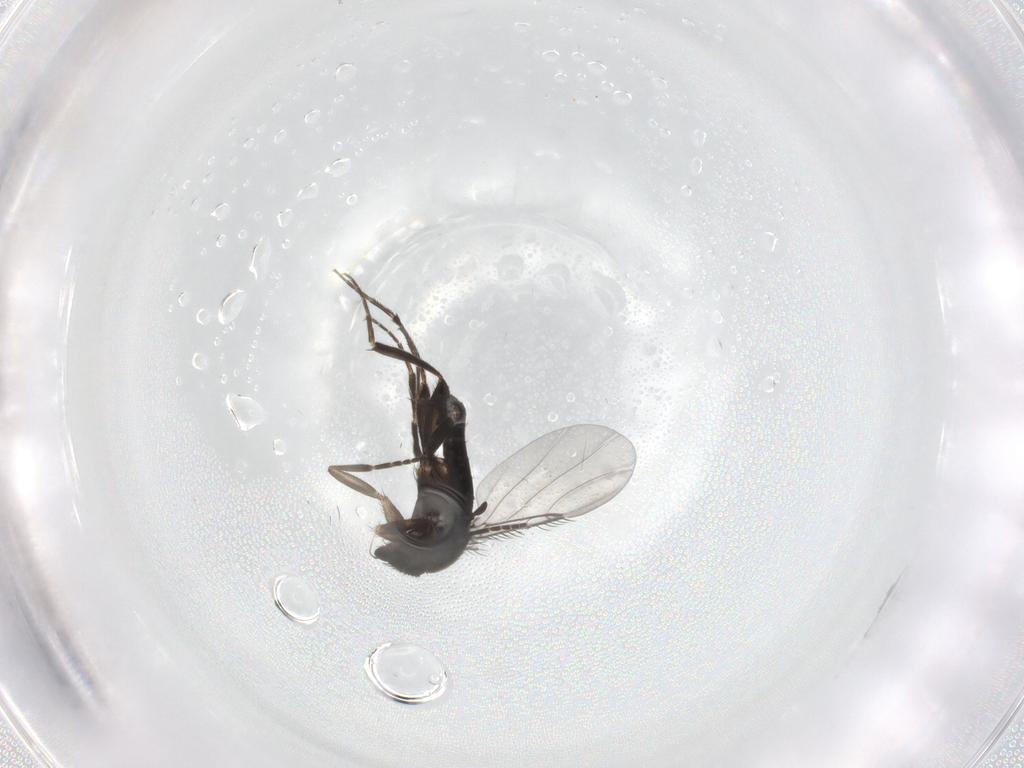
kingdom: Animalia
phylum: Arthropoda
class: Insecta
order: Diptera
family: Phoridae
